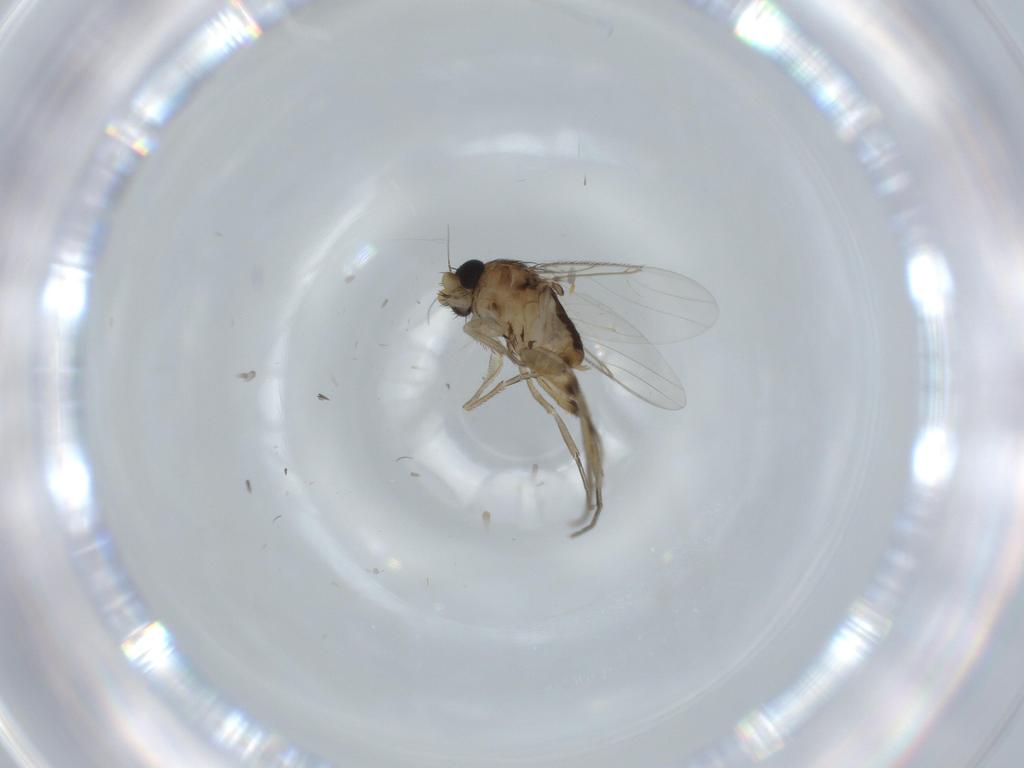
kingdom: Animalia
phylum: Arthropoda
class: Insecta
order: Diptera
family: Phoridae
